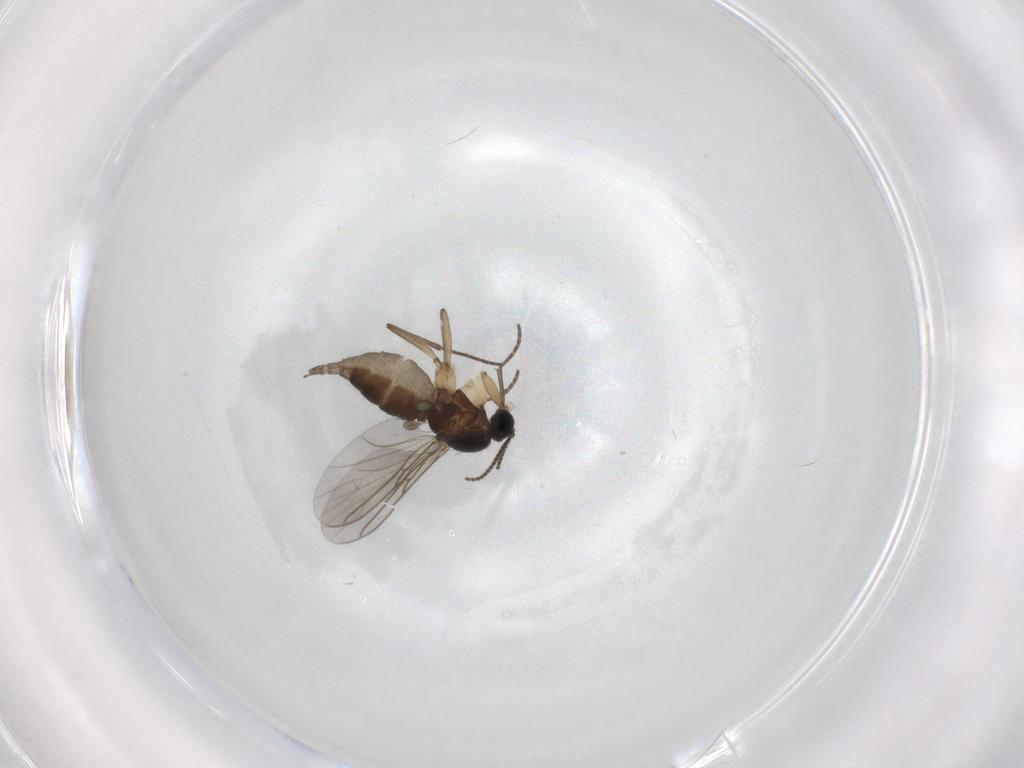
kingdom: Animalia
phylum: Arthropoda
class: Insecta
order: Diptera
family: Sciaridae
